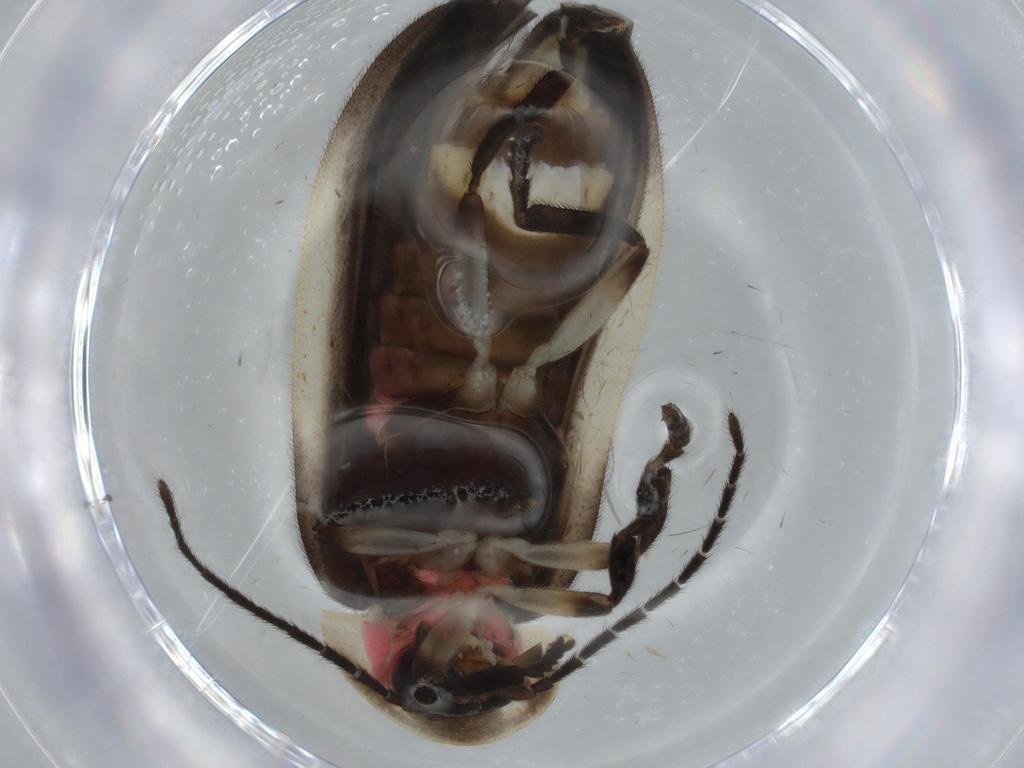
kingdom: Animalia
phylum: Arthropoda
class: Insecta
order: Coleoptera
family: Lampyridae
